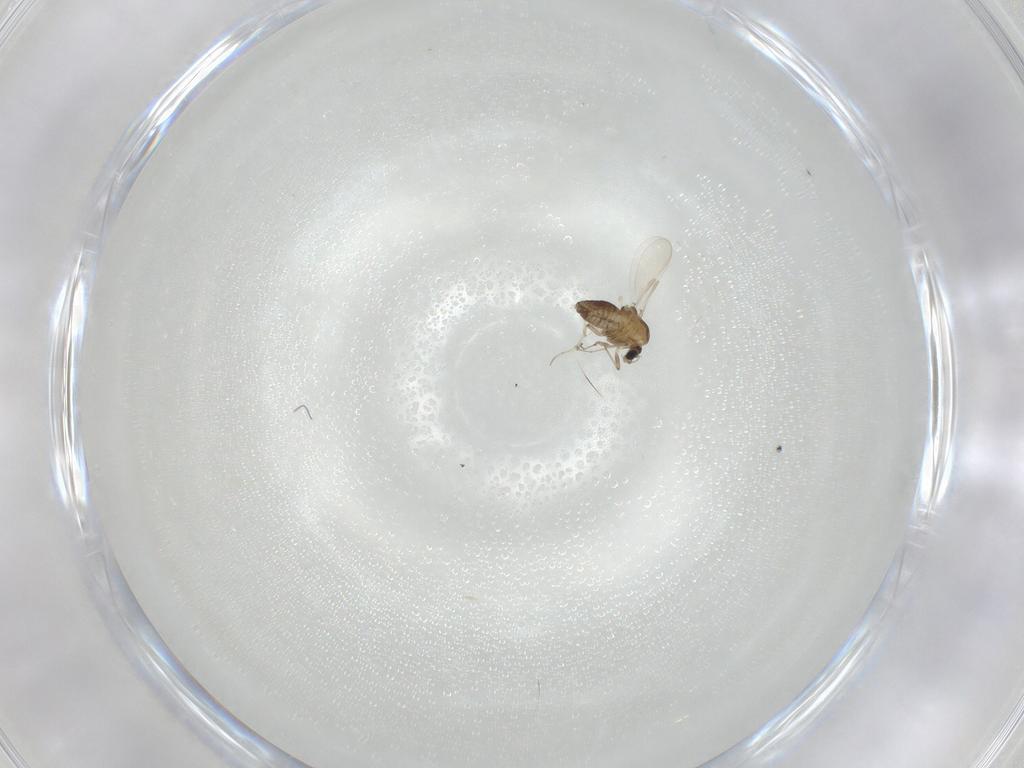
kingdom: Animalia
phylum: Arthropoda
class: Insecta
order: Diptera
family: Chironomidae
